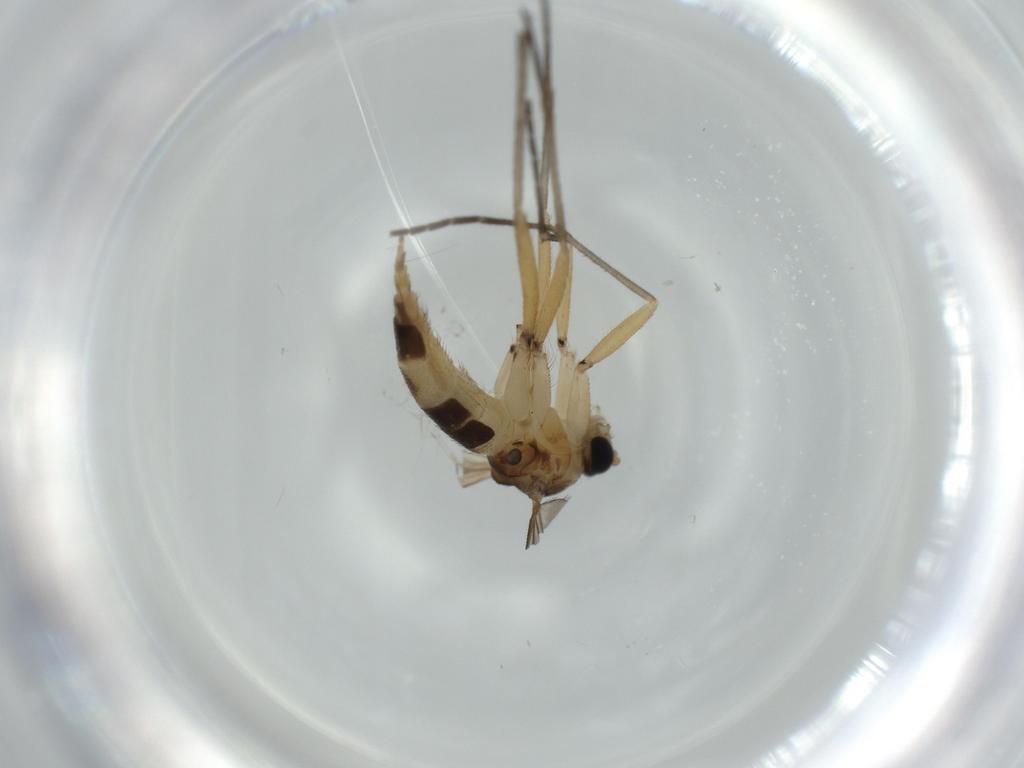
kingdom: Animalia
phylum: Arthropoda
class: Insecta
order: Diptera
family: Sciaridae
